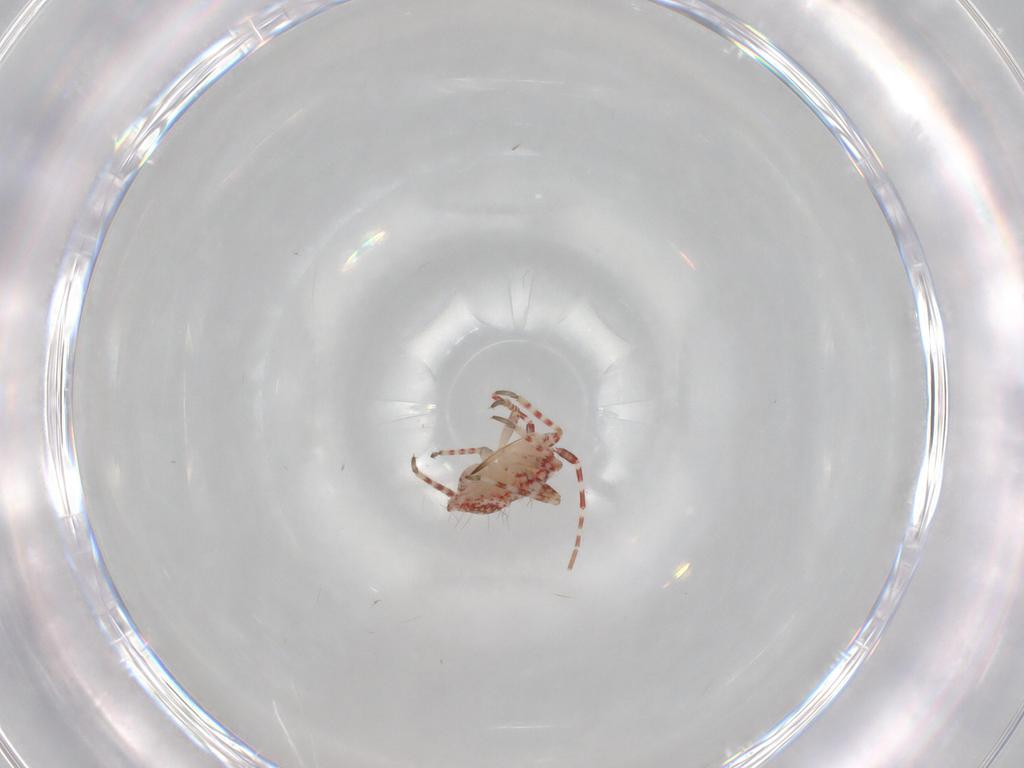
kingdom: Animalia
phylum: Arthropoda
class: Insecta
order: Hemiptera
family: Miridae
